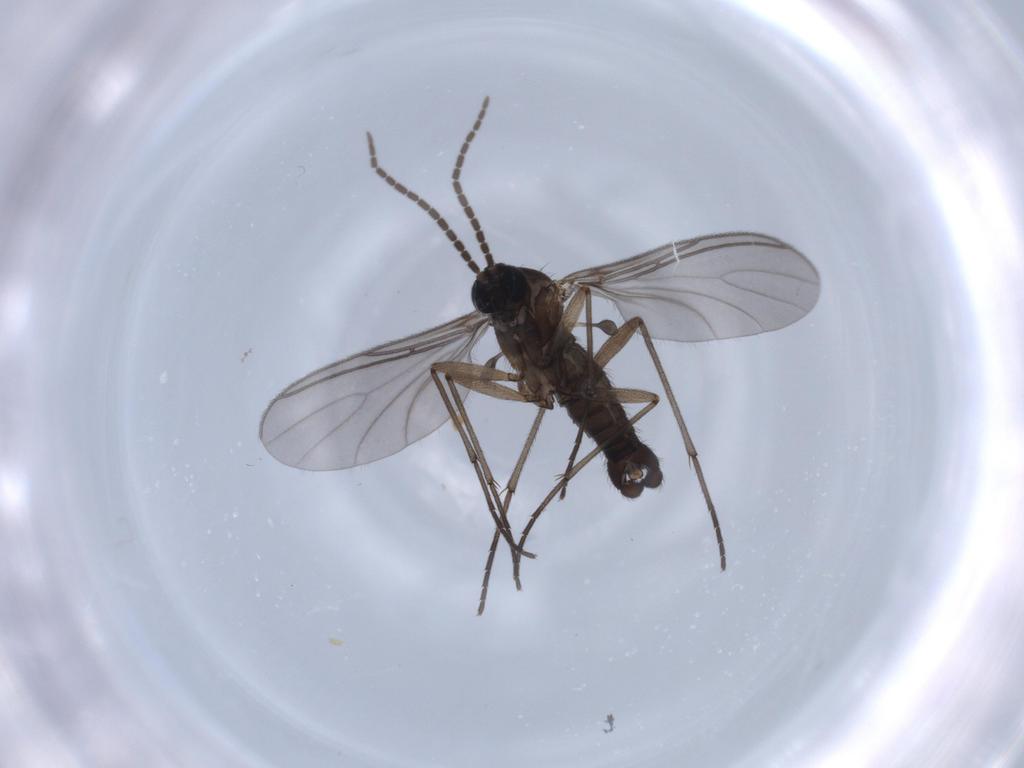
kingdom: Animalia
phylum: Arthropoda
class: Insecta
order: Diptera
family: Sciaridae
